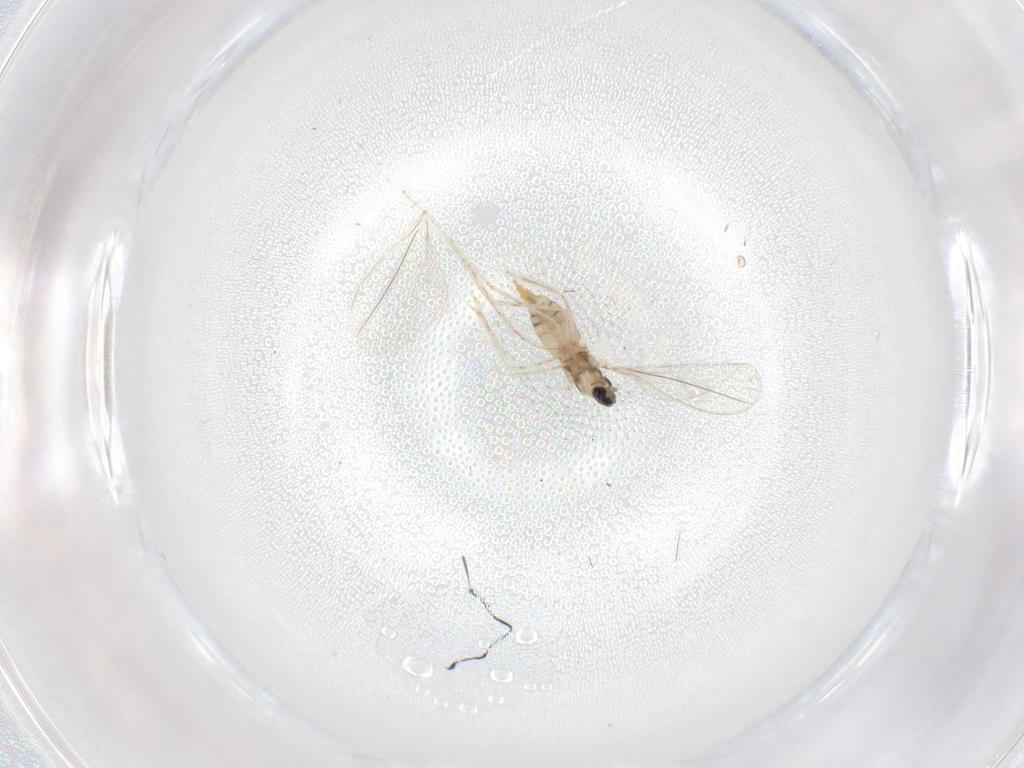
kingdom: Animalia
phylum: Arthropoda
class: Insecta
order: Diptera
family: Cecidomyiidae
